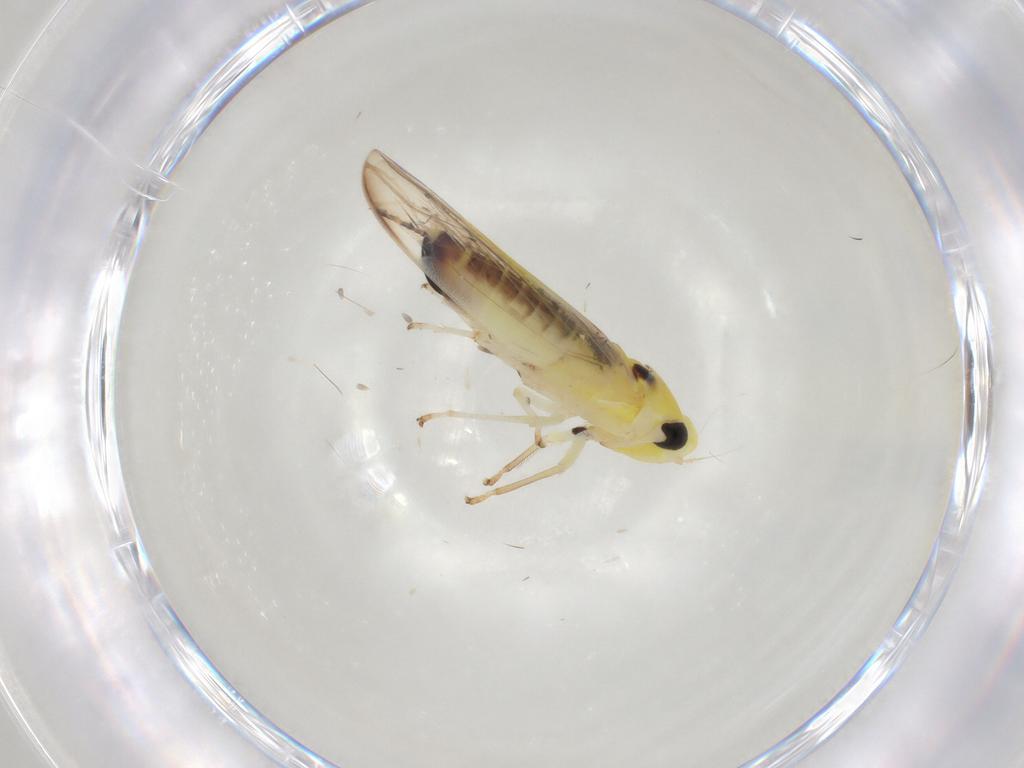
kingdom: Animalia
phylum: Arthropoda
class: Insecta
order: Hemiptera
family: Cicadellidae
